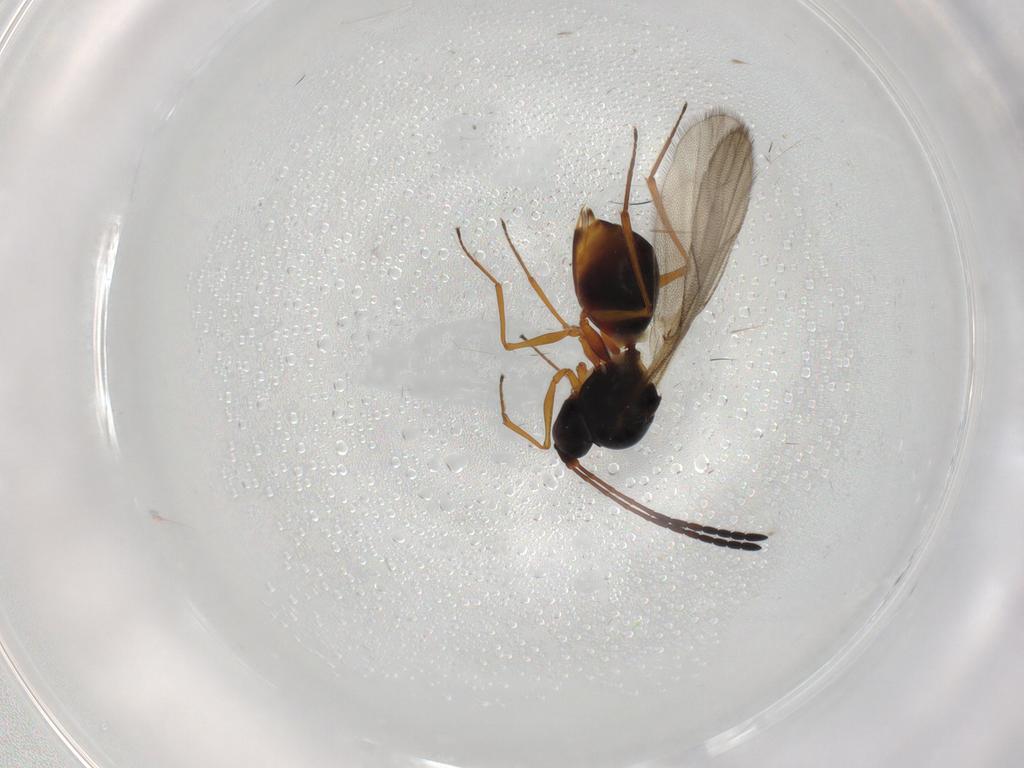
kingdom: Animalia
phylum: Arthropoda
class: Insecta
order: Hymenoptera
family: Figitidae
